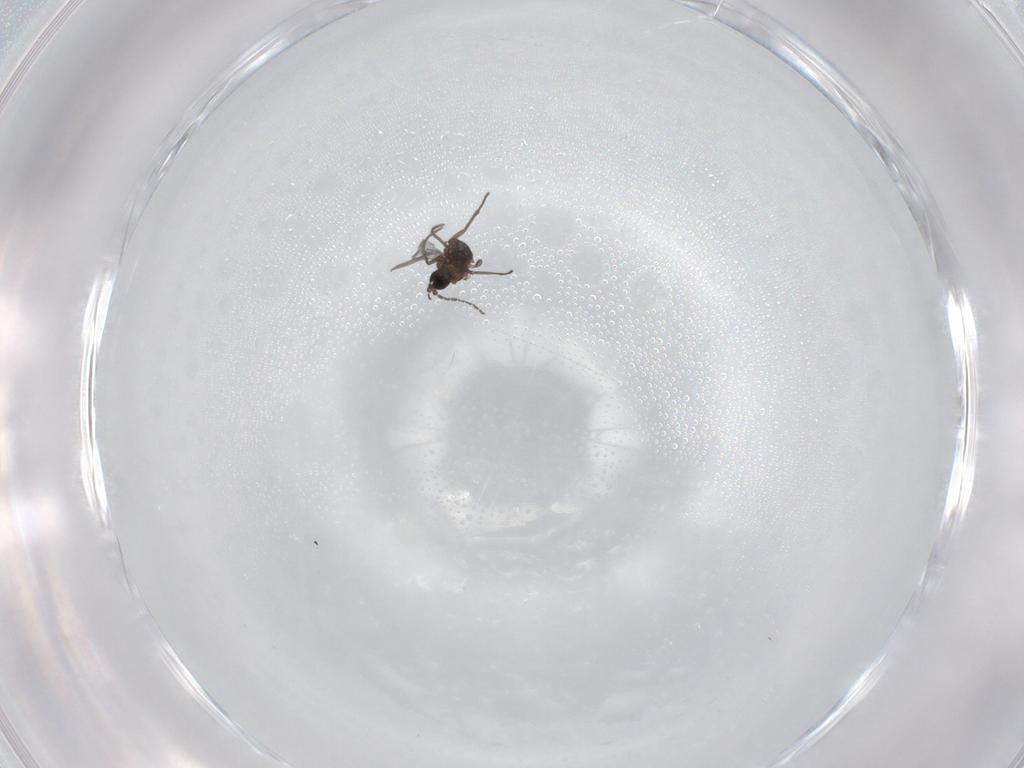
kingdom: Animalia
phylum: Arthropoda
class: Insecta
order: Diptera
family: Sciaridae
